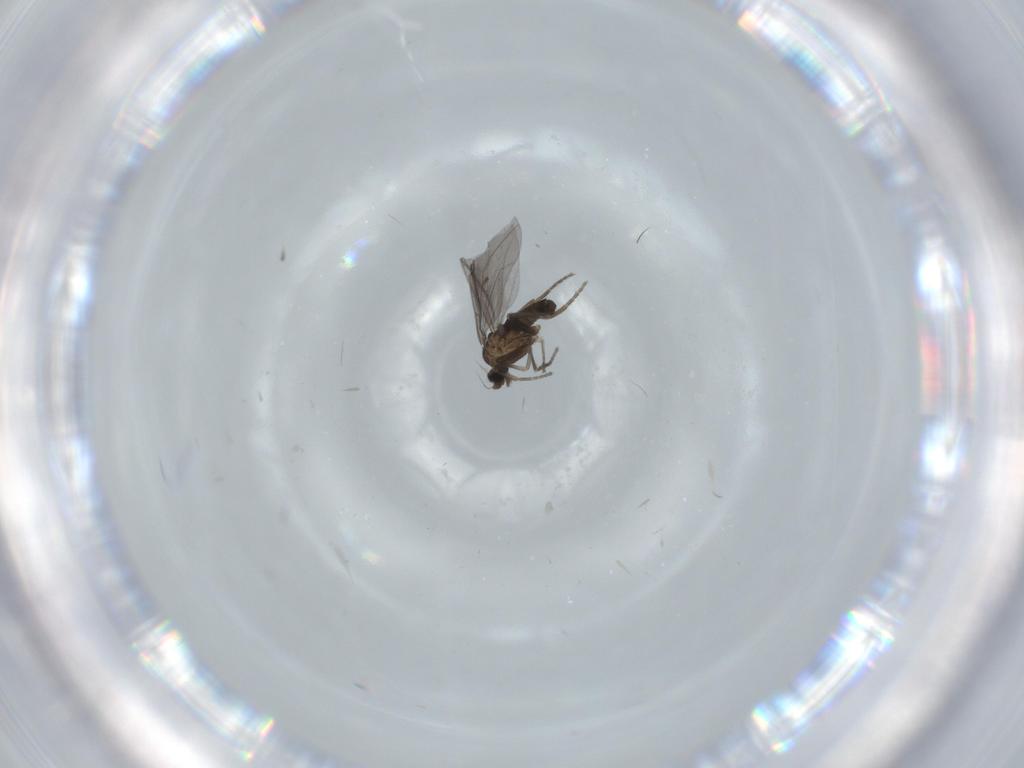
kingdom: Animalia
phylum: Arthropoda
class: Insecta
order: Diptera
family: Phoridae
